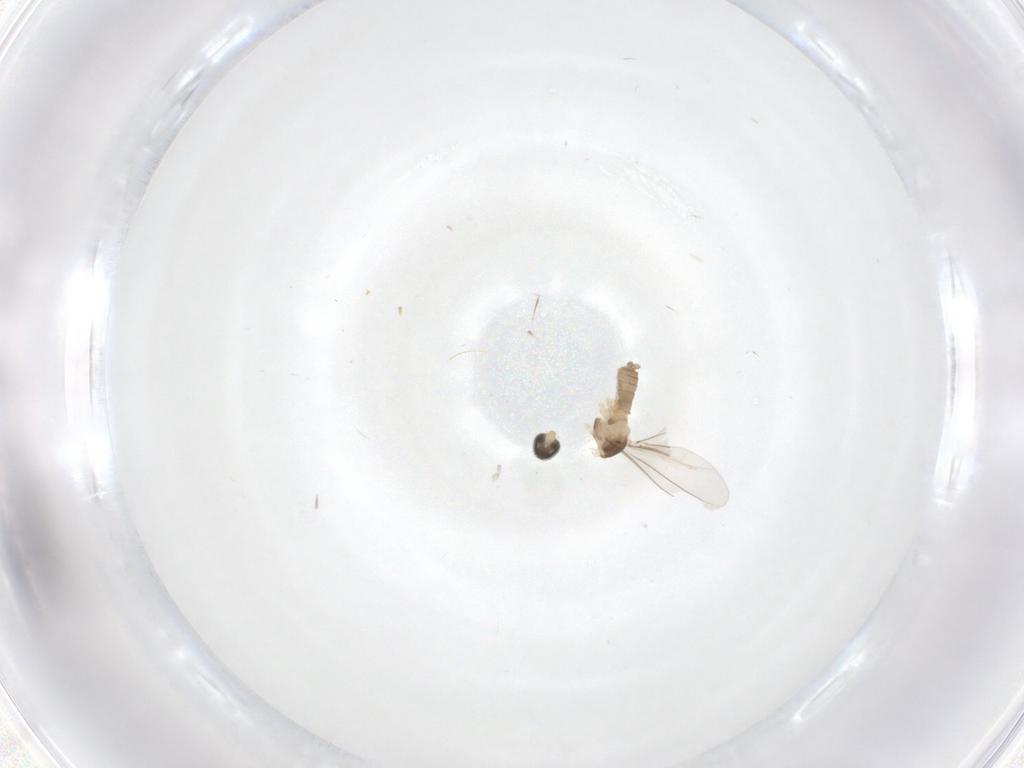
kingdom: Animalia
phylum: Arthropoda
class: Insecta
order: Diptera
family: Cecidomyiidae
